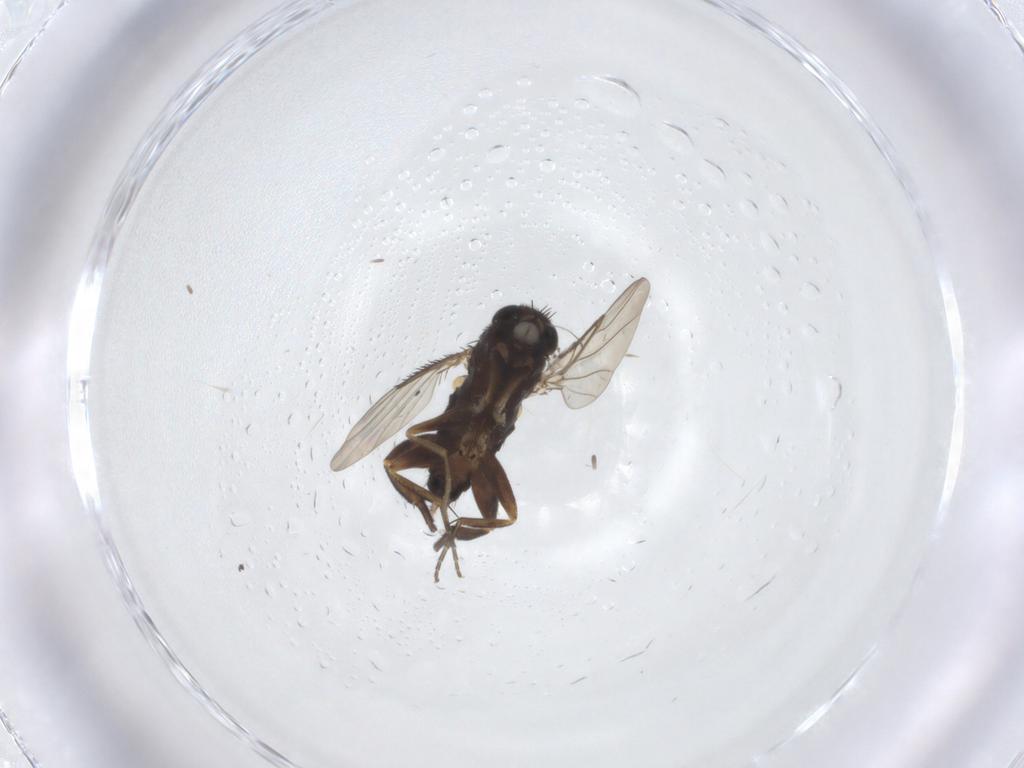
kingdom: Animalia
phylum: Arthropoda
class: Insecta
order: Diptera
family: Phoridae
